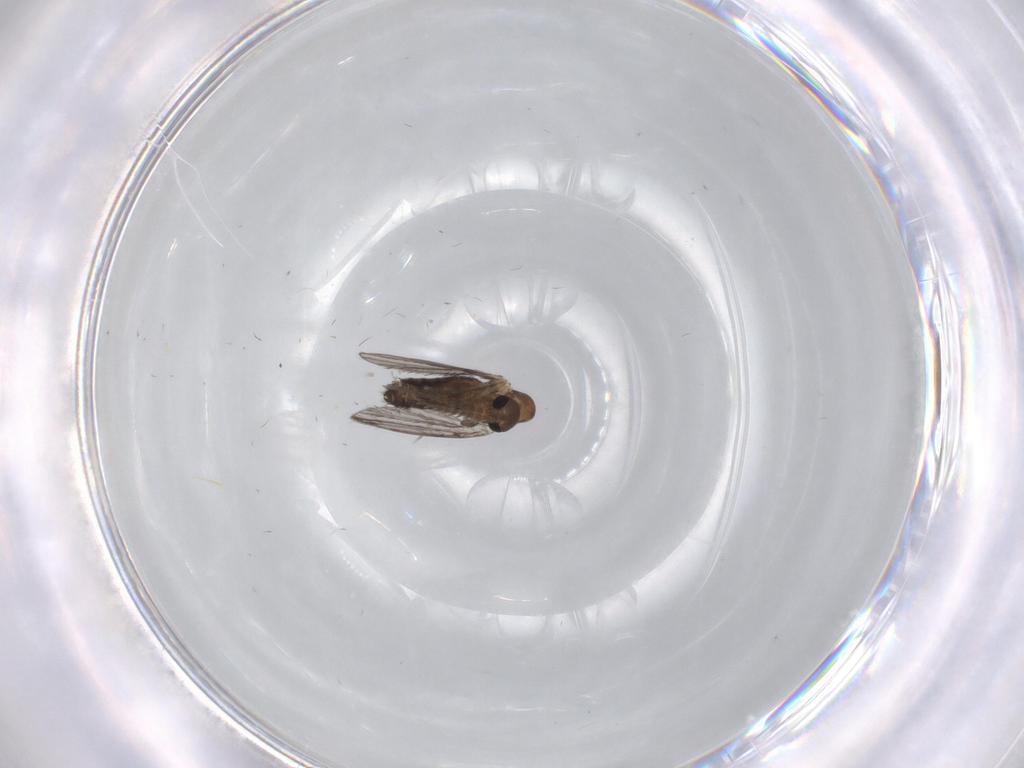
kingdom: Animalia
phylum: Arthropoda
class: Insecta
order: Diptera
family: Psychodidae
